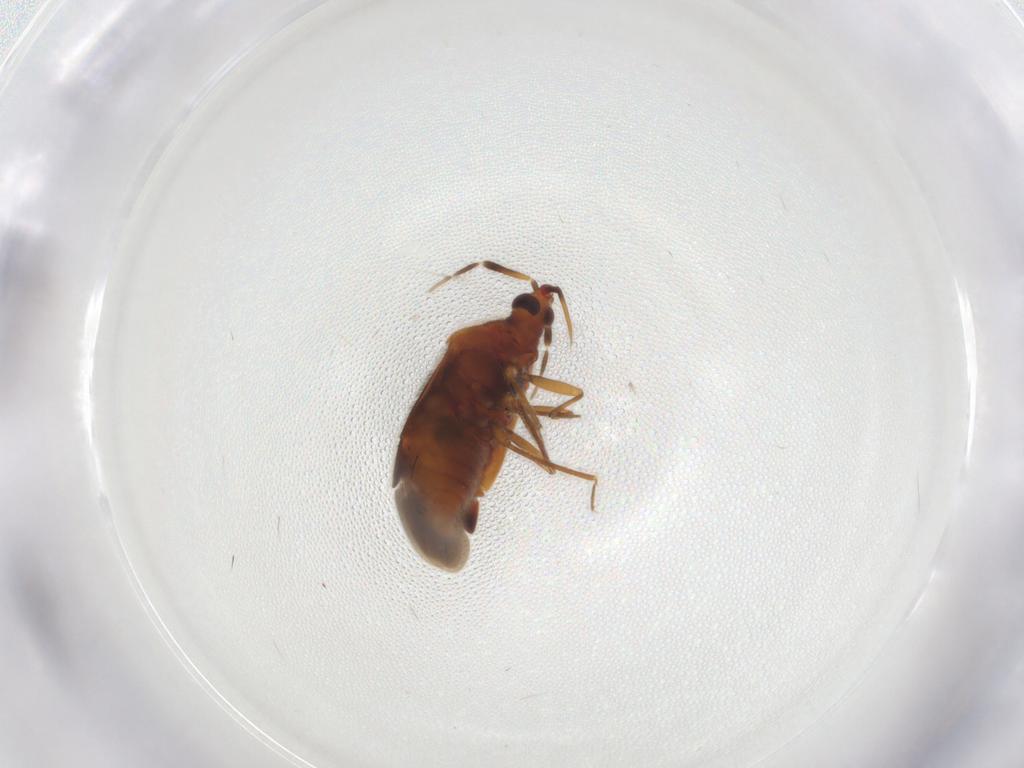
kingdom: Animalia
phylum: Arthropoda
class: Insecta
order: Hemiptera
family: Anthocoridae
